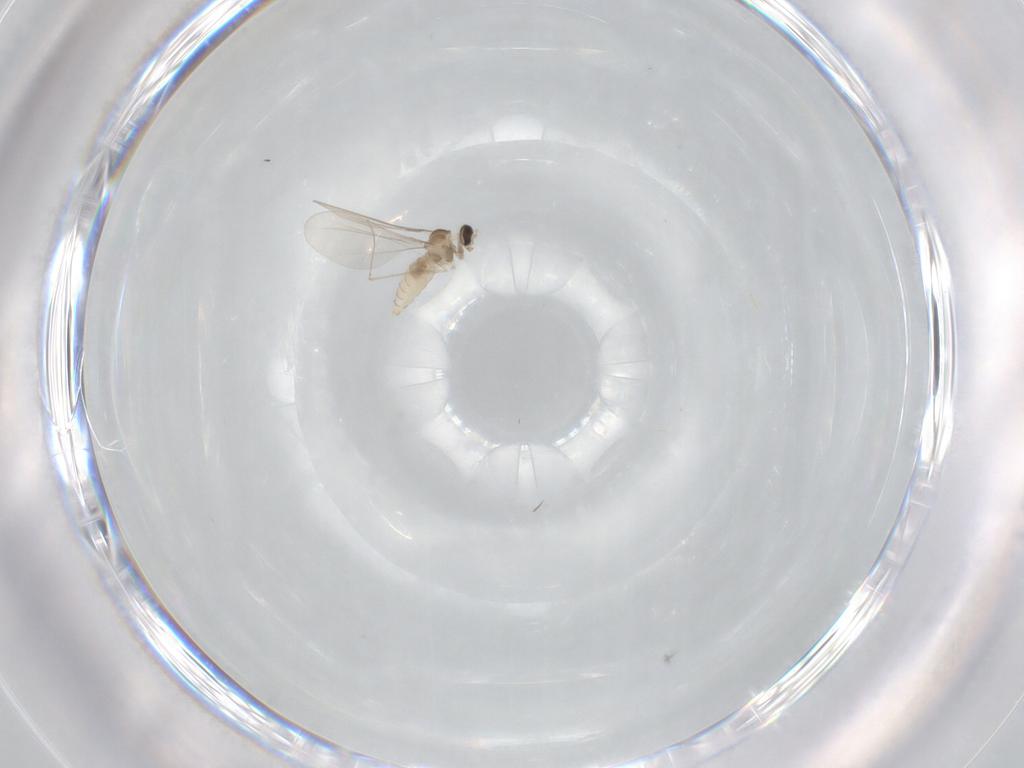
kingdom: Animalia
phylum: Arthropoda
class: Insecta
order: Diptera
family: Cecidomyiidae
